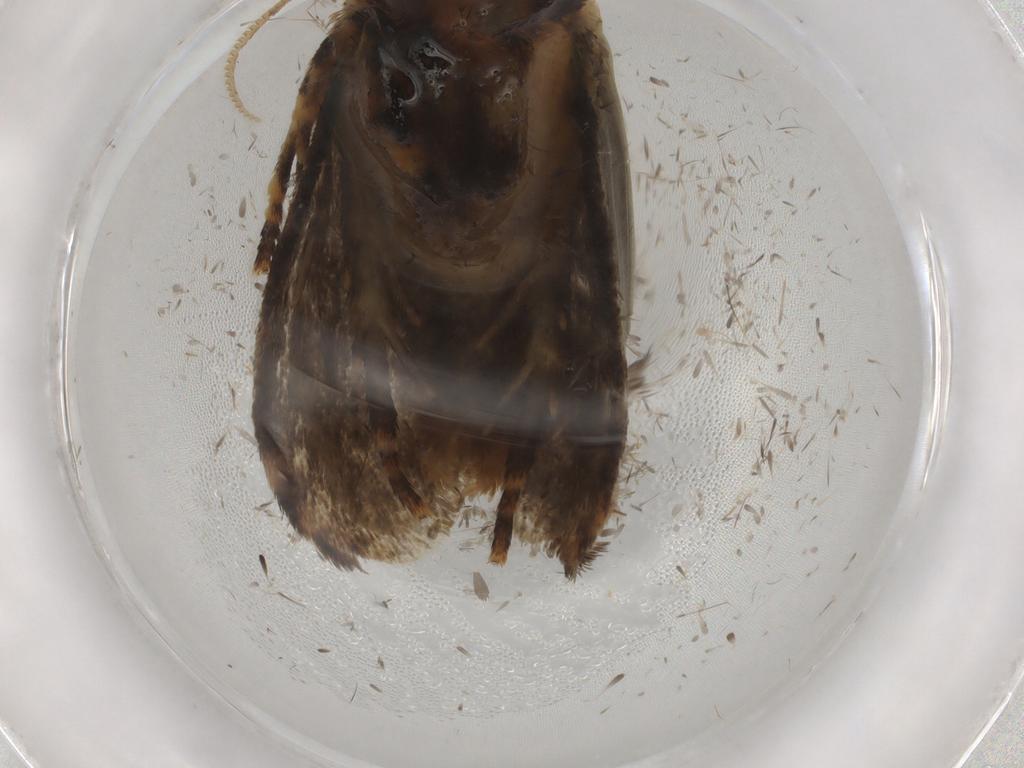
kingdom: Animalia
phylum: Arthropoda
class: Insecta
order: Lepidoptera
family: Tineidae
